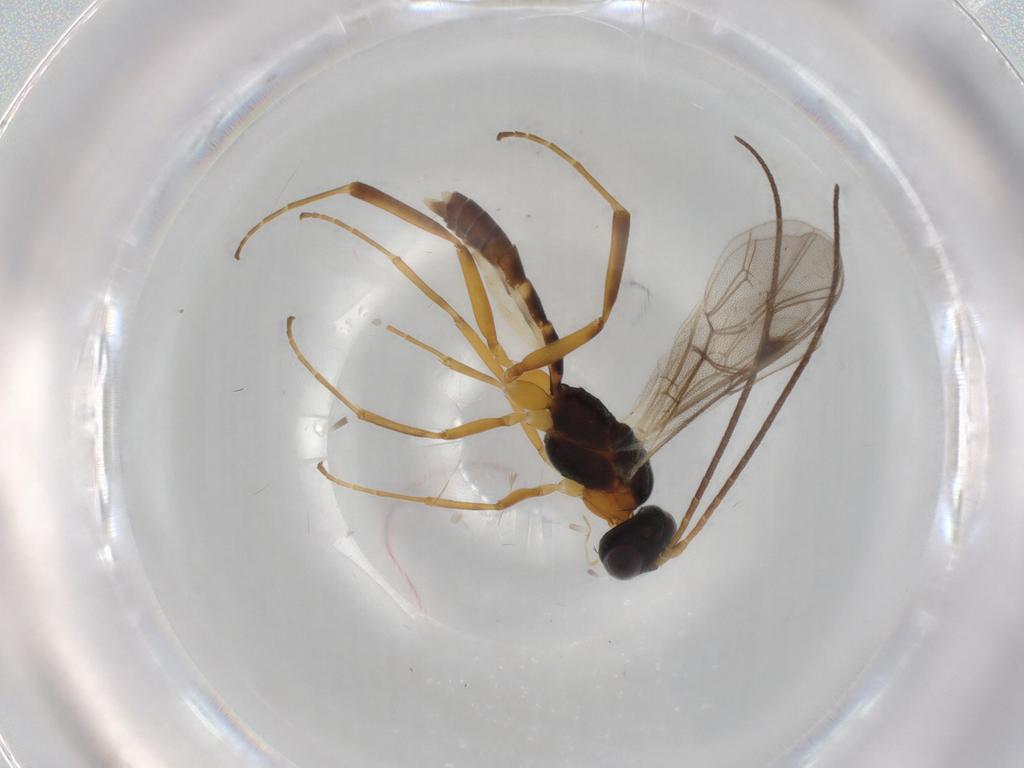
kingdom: Animalia
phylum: Arthropoda
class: Insecta
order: Hymenoptera
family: Ichneumonidae
